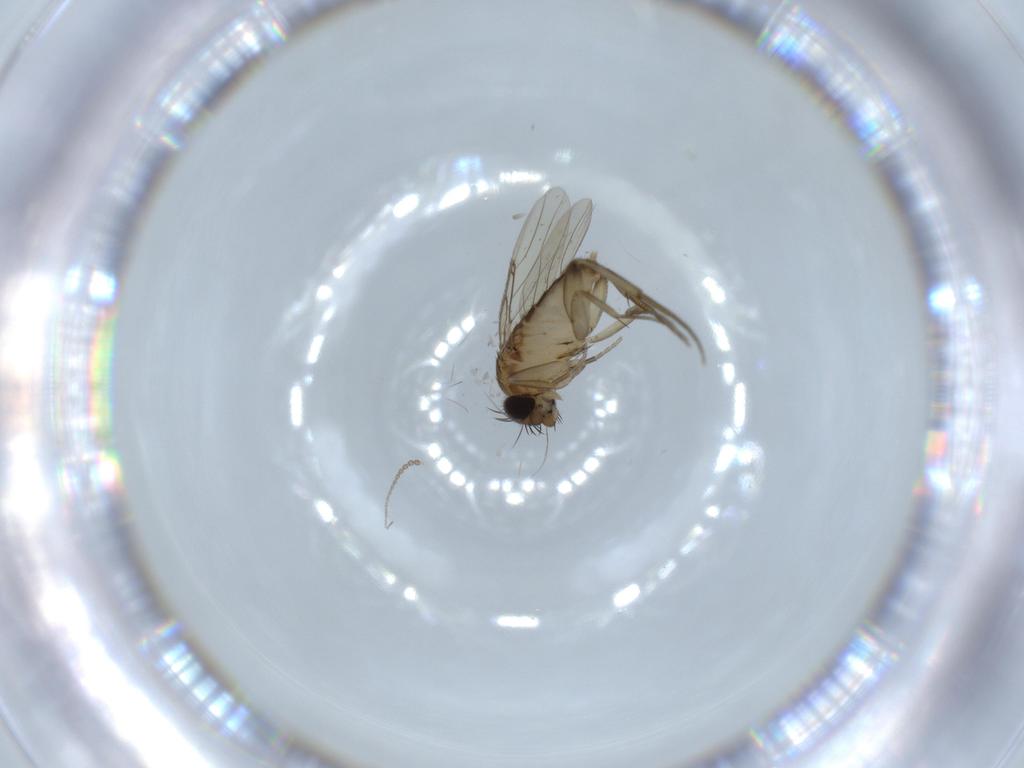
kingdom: Animalia
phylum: Arthropoda
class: Insecta
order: Diptera
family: Phoridae
